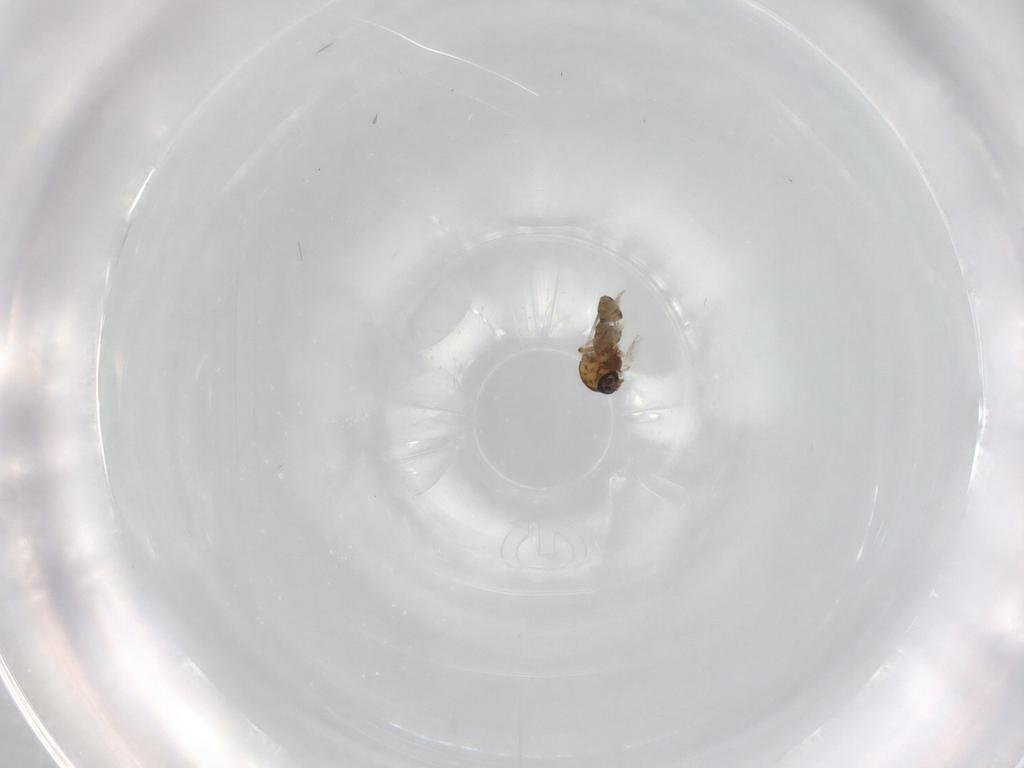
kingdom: Animalia
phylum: Arthropoda
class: Insecta
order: Diptera
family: Ceratopogonidae
